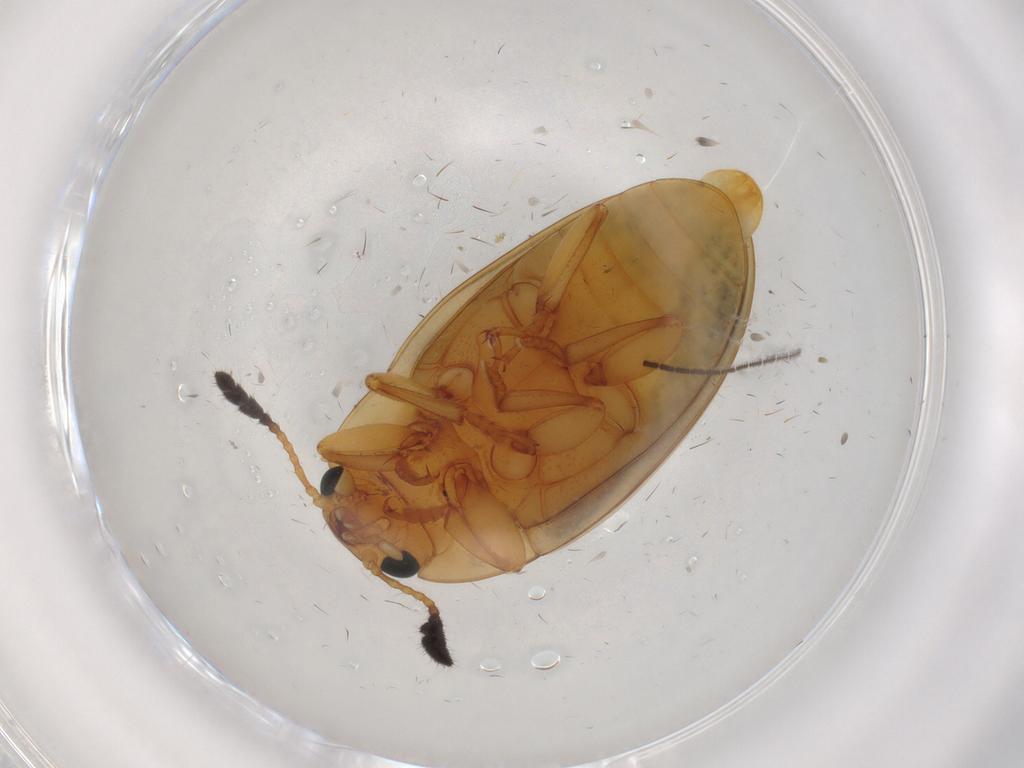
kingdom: Animalia
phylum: Arthropoda
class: Insecta
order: Coleoptera
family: Erotylidae
